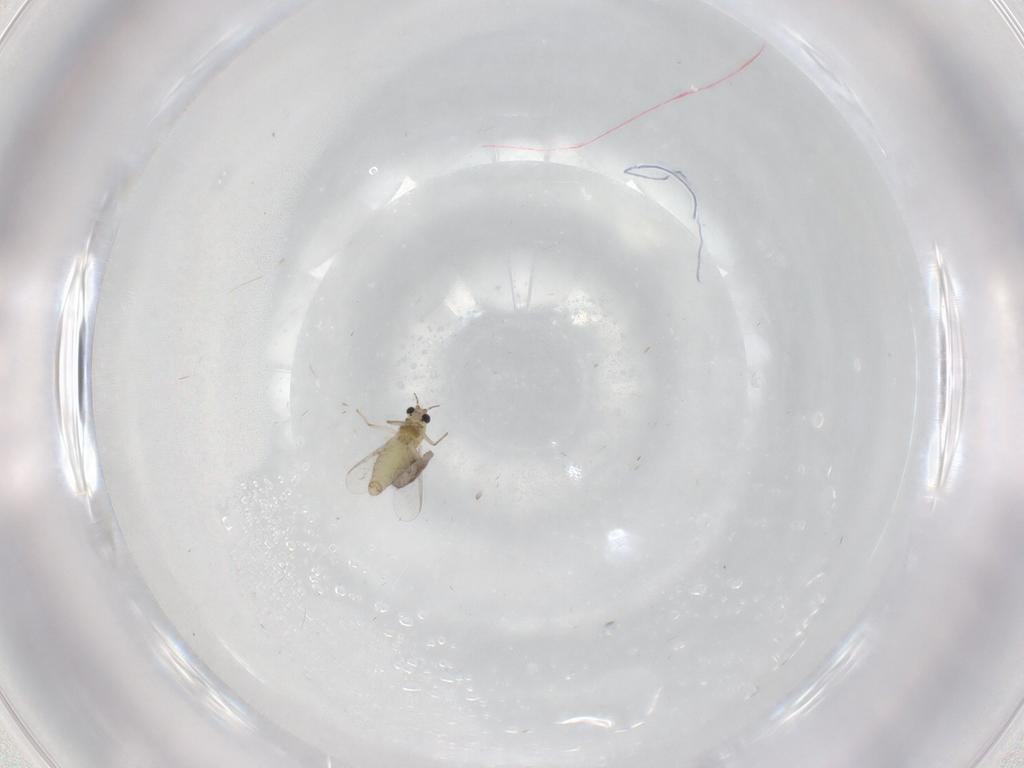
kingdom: Animalia
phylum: Arthropoda
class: Insecta
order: Diptera
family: Chironomidae
